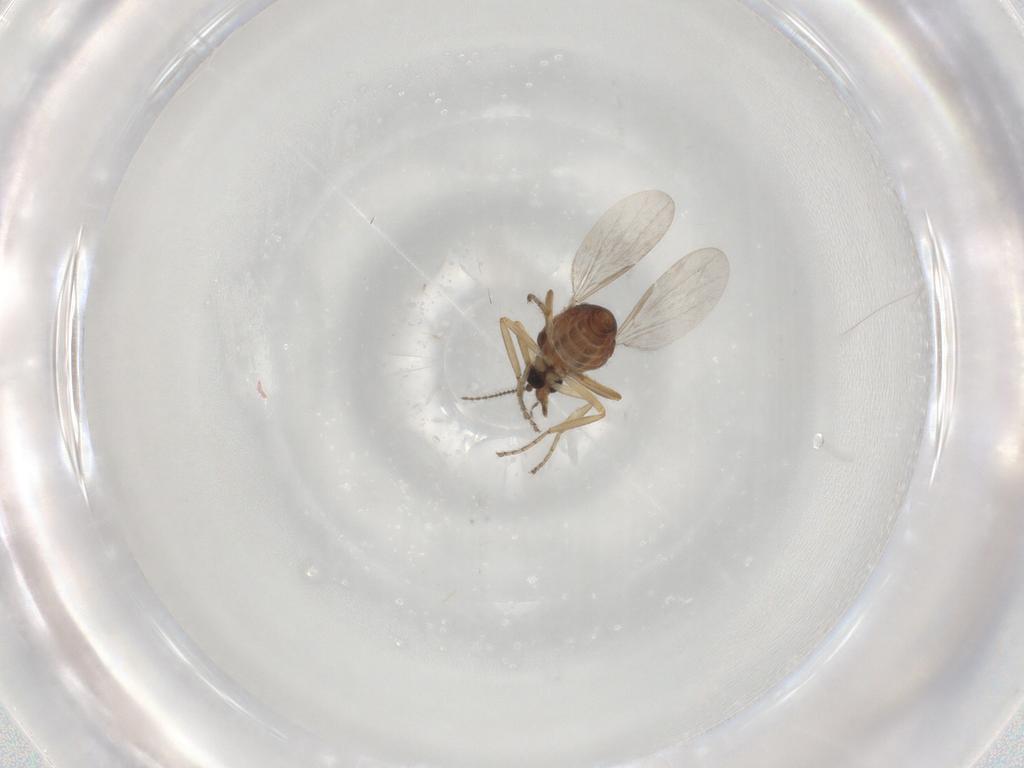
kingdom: Animalia
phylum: Arthropoda
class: Insecta
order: Diptera
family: Ceratopogonidae
